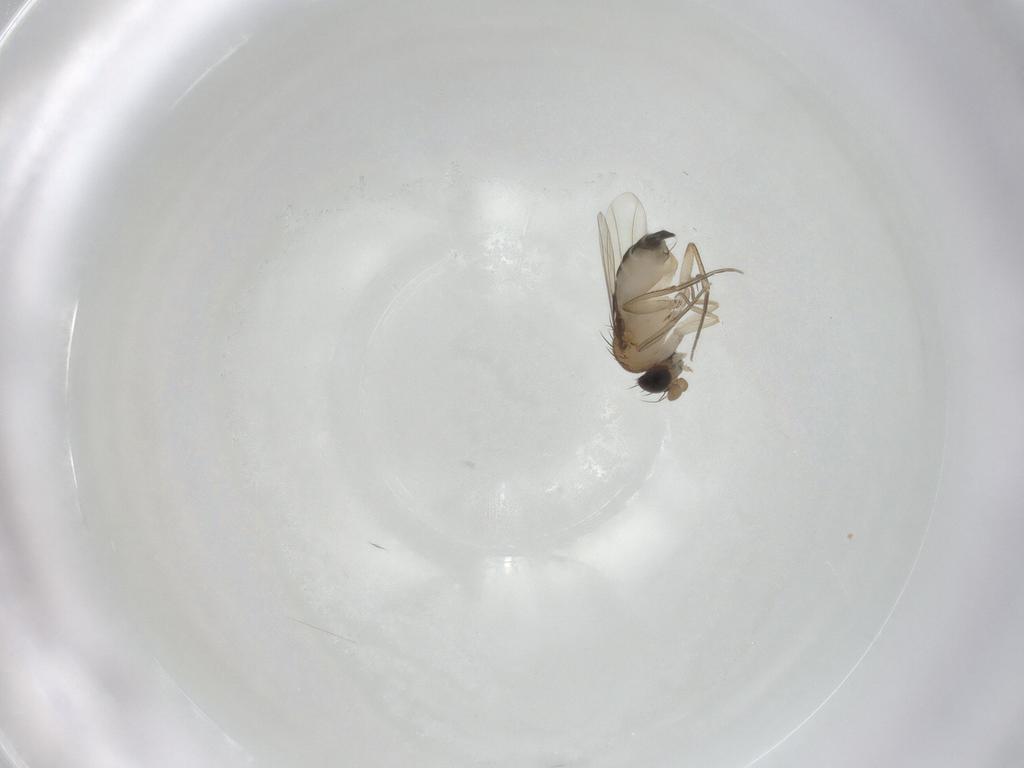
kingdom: Animalia
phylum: Arthropoda
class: Insecta
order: Diptera
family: Phoridae
